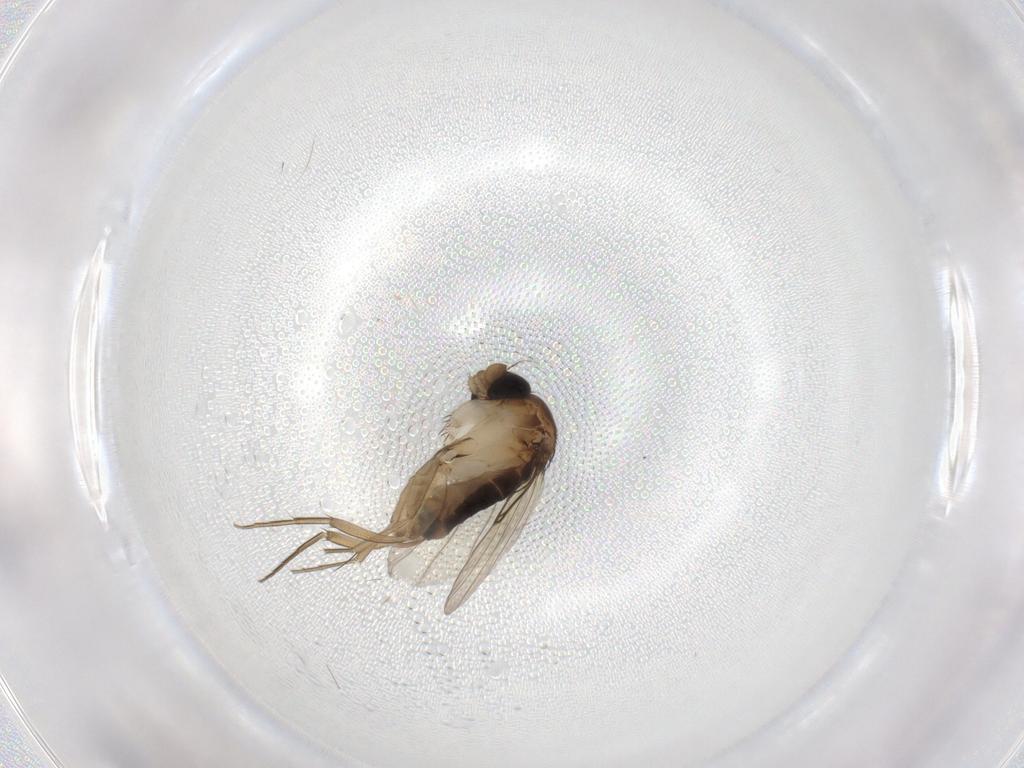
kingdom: Animalia
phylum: Arthropoda
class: Insecta
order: Diptera
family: Phoridae
